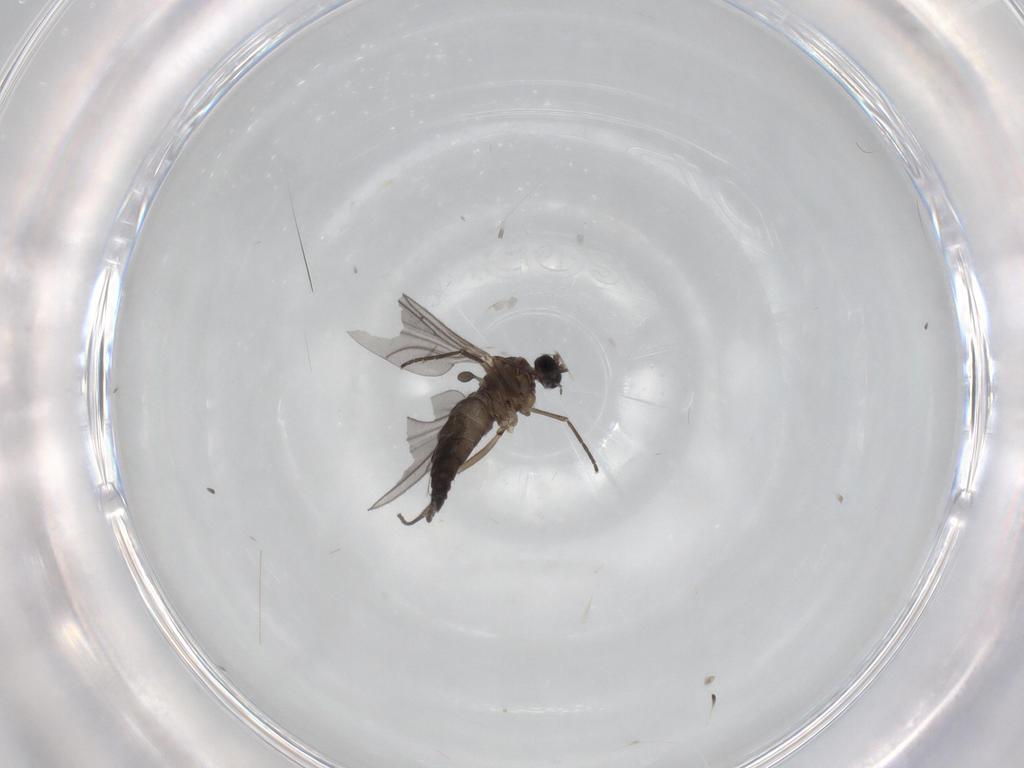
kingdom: Animalia
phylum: Arthropoda
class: Insecta
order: Diptera
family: Sciaridae
